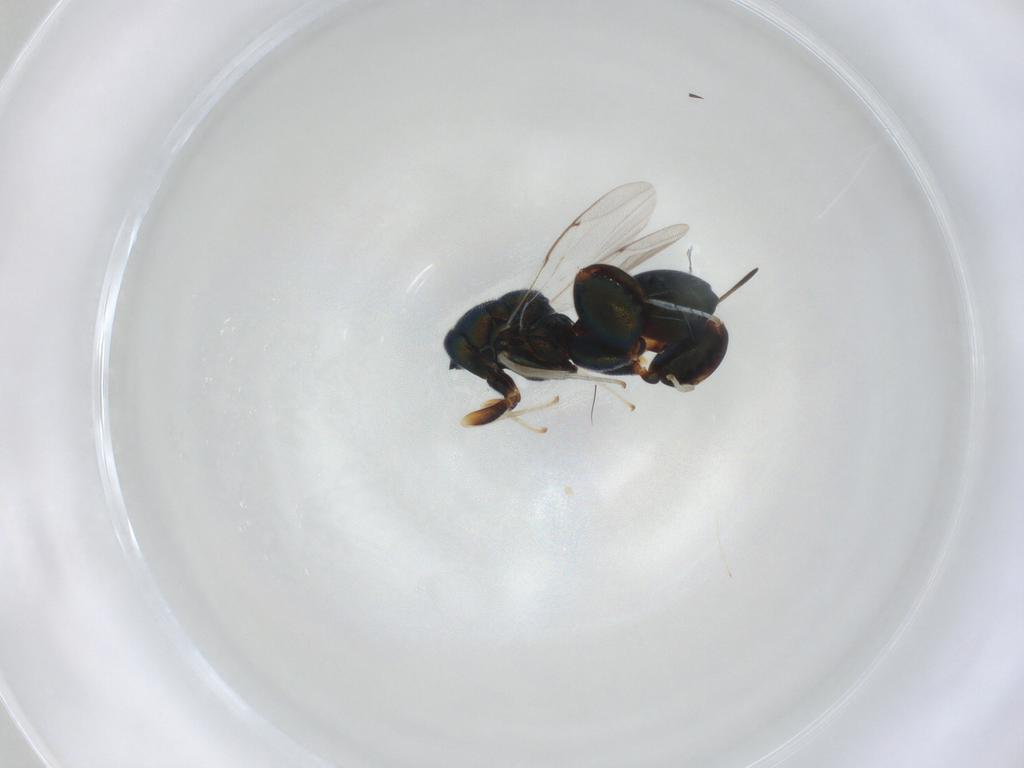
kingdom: Animalia
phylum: Arthropoda
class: Insecta
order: Hymenoptera
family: Torymidae
